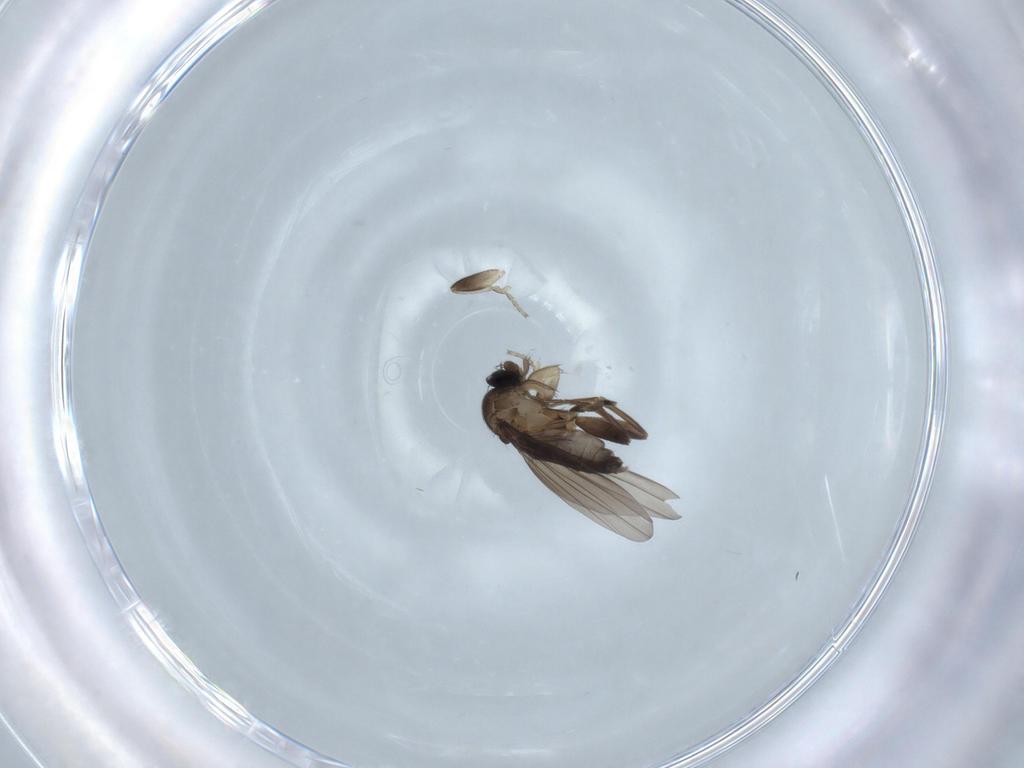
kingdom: Animalia
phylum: Arthropoda
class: Insecta
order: Diptera
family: Phoridae
